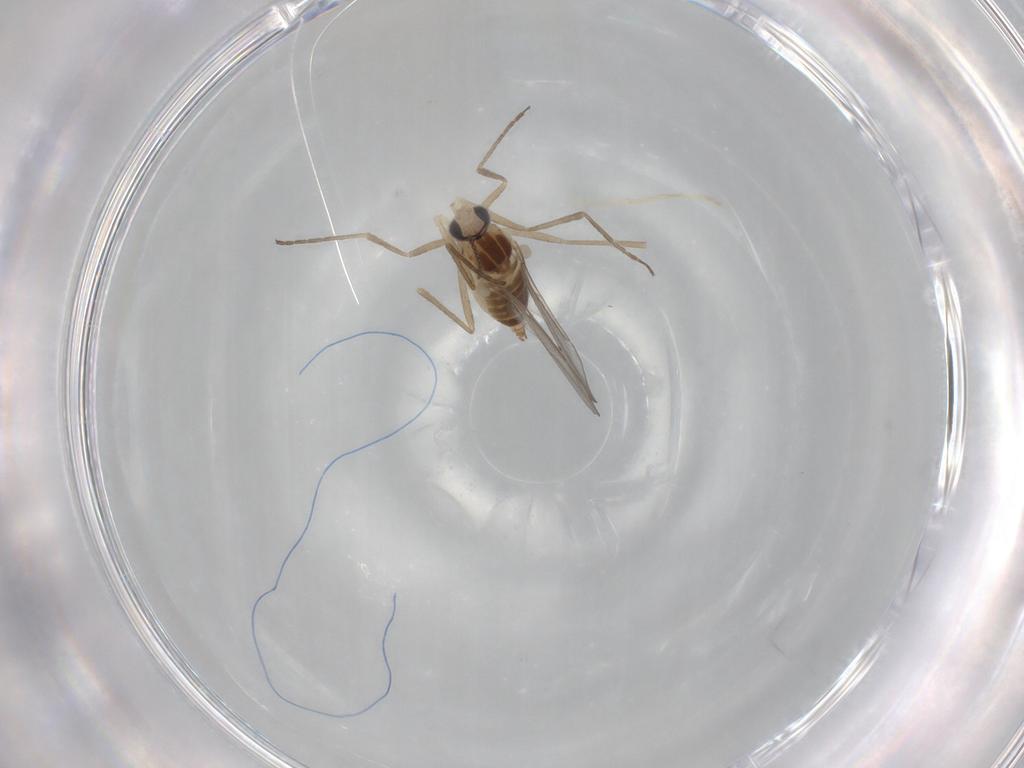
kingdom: Animalia
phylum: Arthropoda
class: Insecta
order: Diptera
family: Cecidomyiidae
